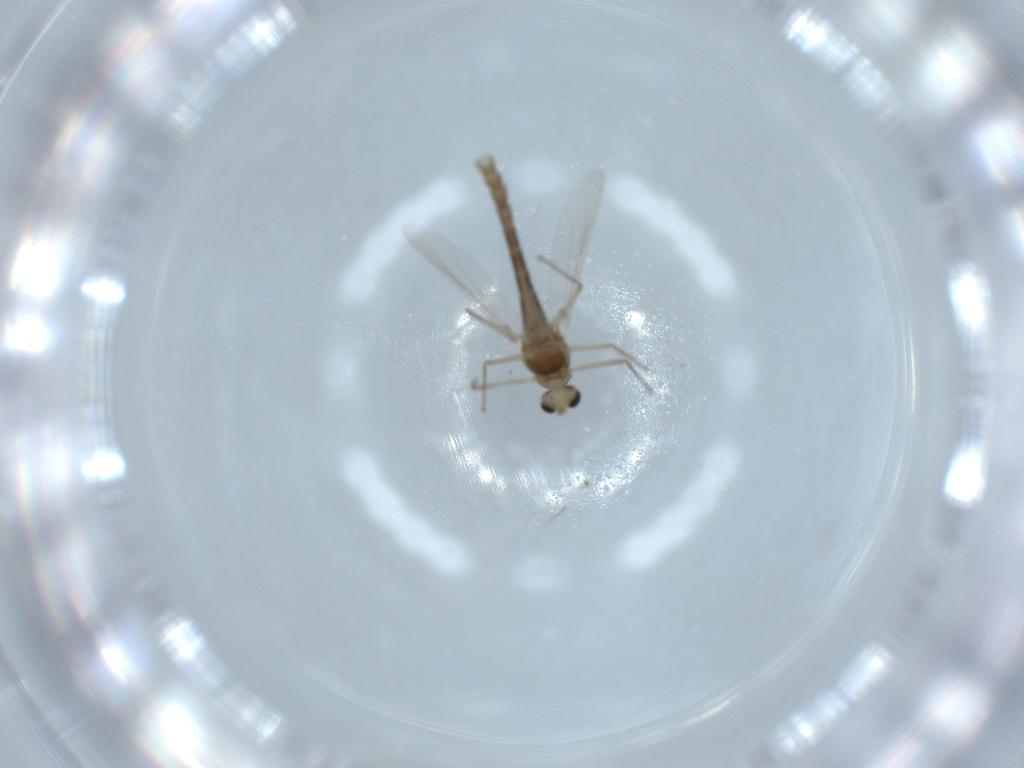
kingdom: Animalia
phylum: Arthropoda
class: Insecta
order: Diptera
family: Chironomidae
